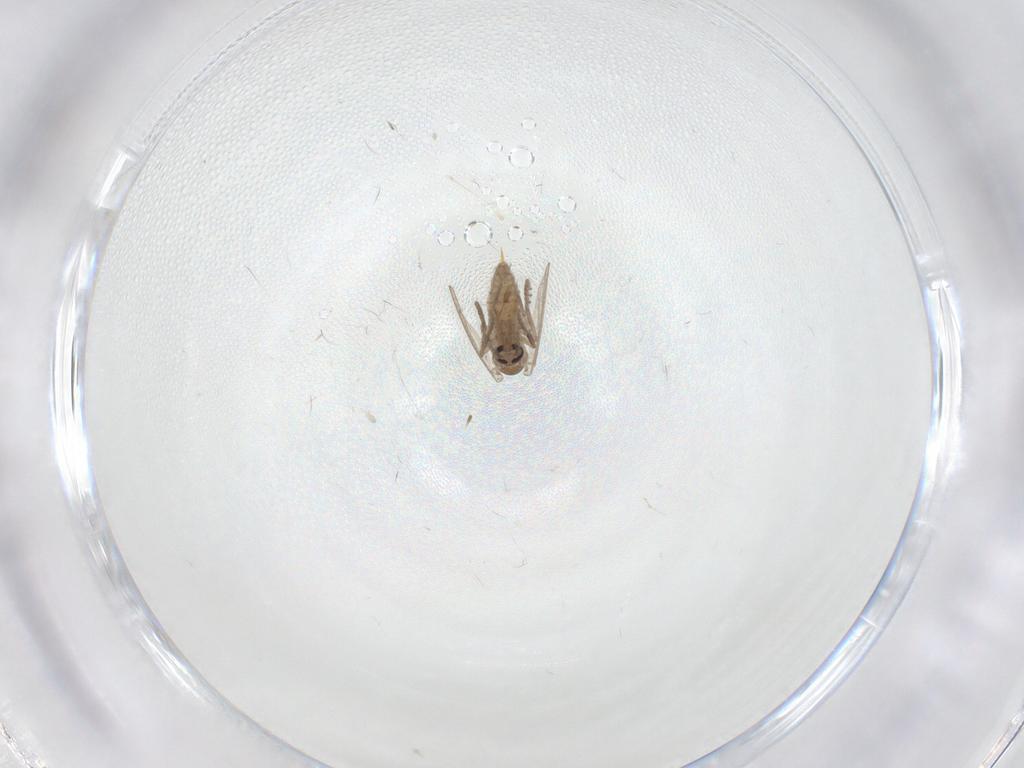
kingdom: Animalia
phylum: Arthropoda
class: Insecta
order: Diptera
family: Psychodidae
